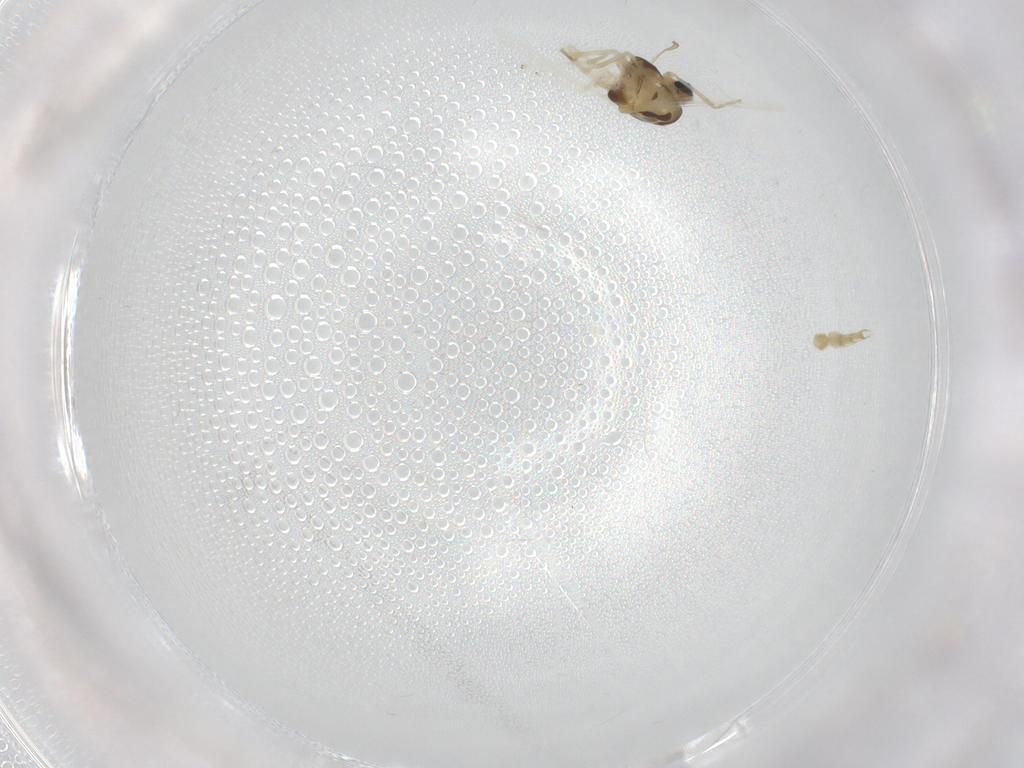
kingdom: Animalia
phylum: Arthropoda
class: Insecta
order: Diptera
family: Chironomidae
